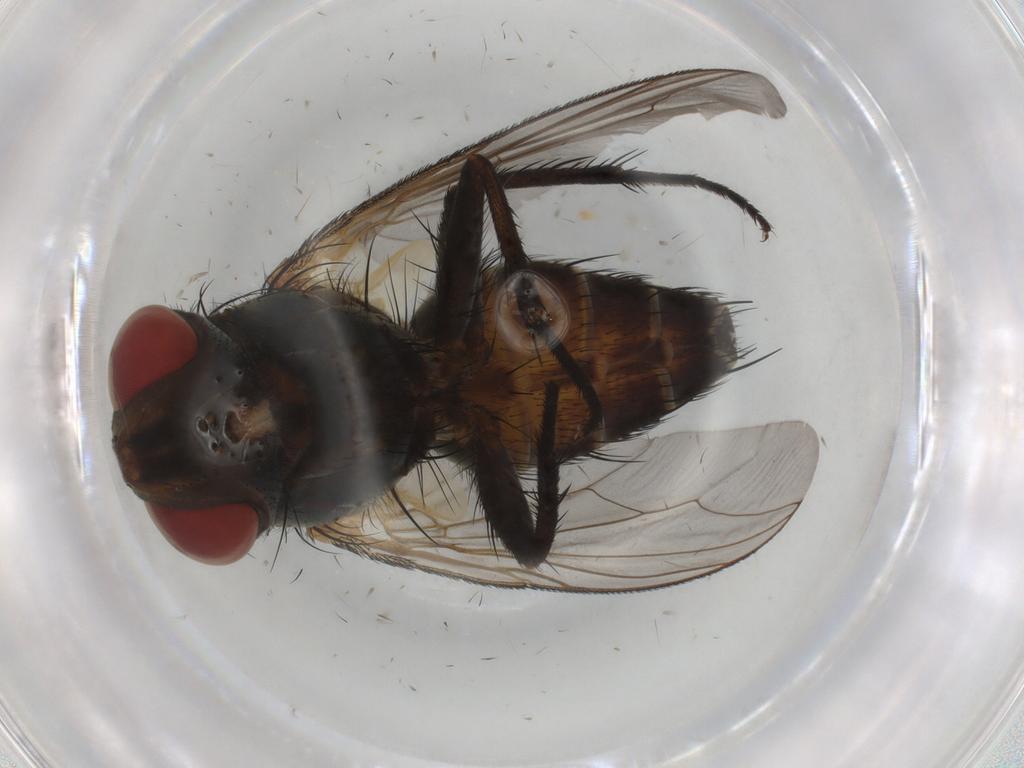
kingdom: Animalia
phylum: Arthropoda
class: Insecta
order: Diptera
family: Sarcophagidae
